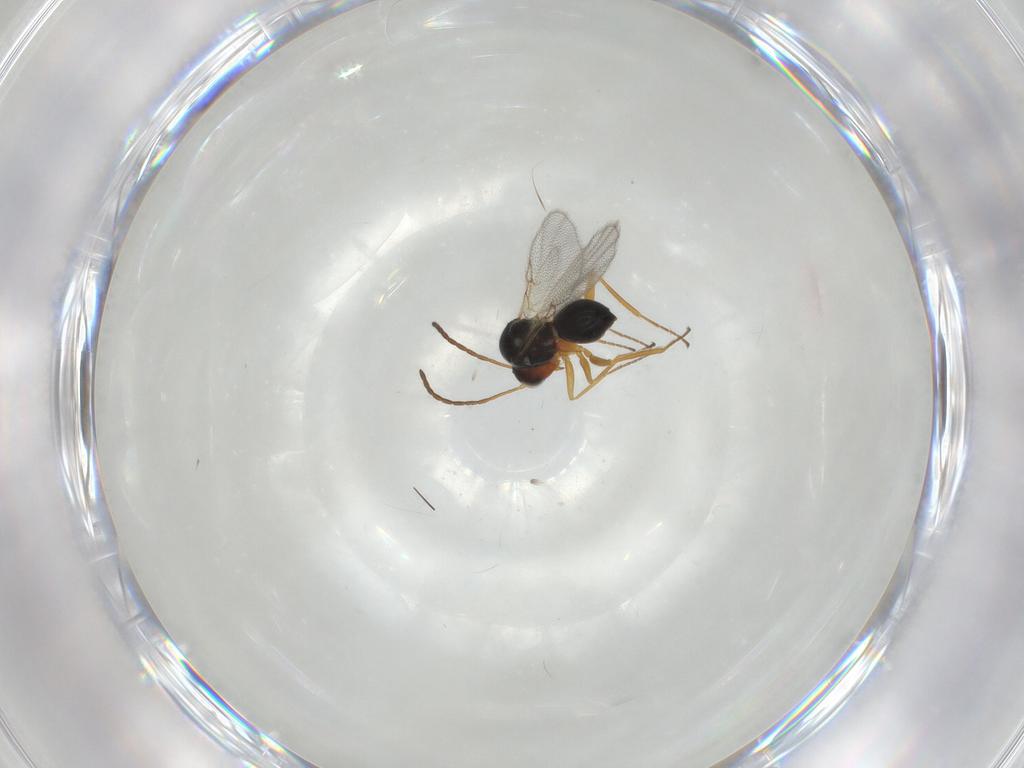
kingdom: Animalia
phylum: Arthropoda
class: Insecta
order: Hymenoptera
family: Figitidae
